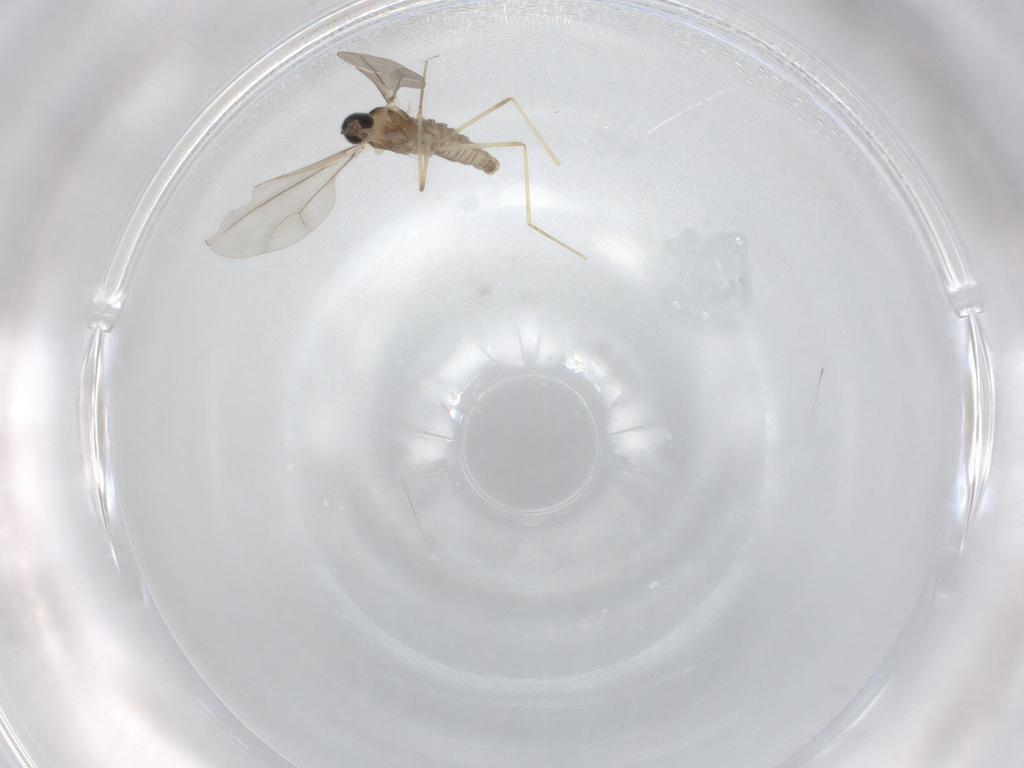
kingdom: Animalia
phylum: Arthropoda
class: Insecta
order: Diptera
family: Cecidomyiidae
